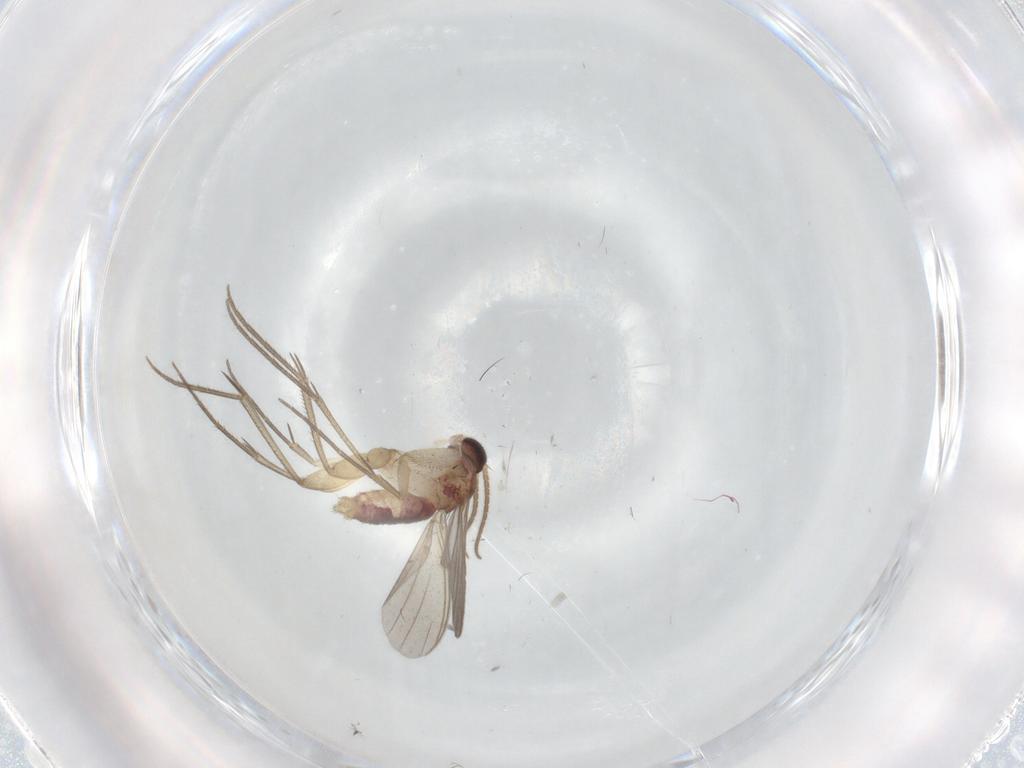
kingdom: Animalia
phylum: Arthropoda
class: Insecta
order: Diptera
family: Mycetophilidae
